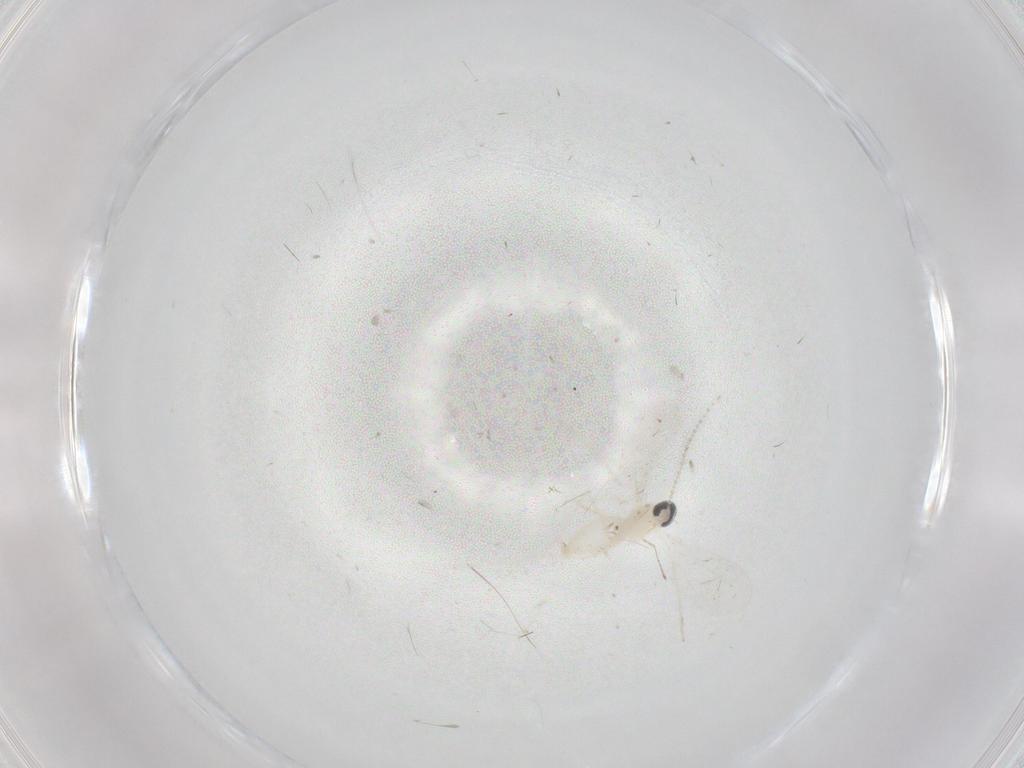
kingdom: Animalia
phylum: Arthropoda
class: Insecta
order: Diptera
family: Cecidomyiidae
